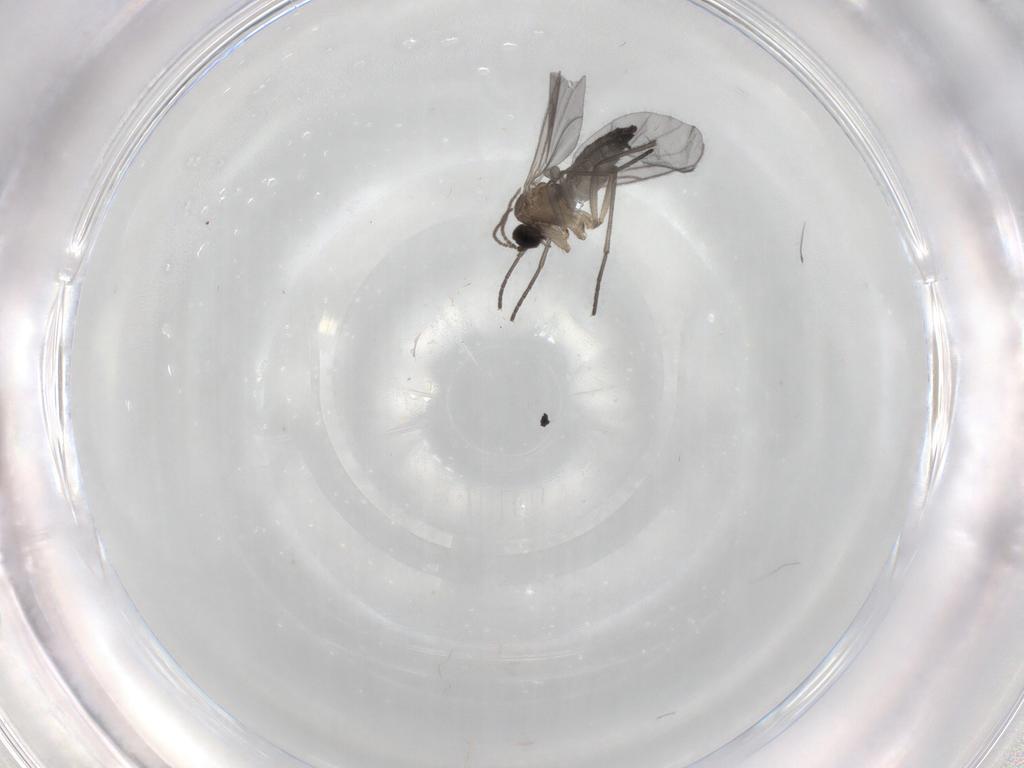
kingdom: Animalia
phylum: Arthropoda
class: Insecta
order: Diptera
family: Sciaridae
